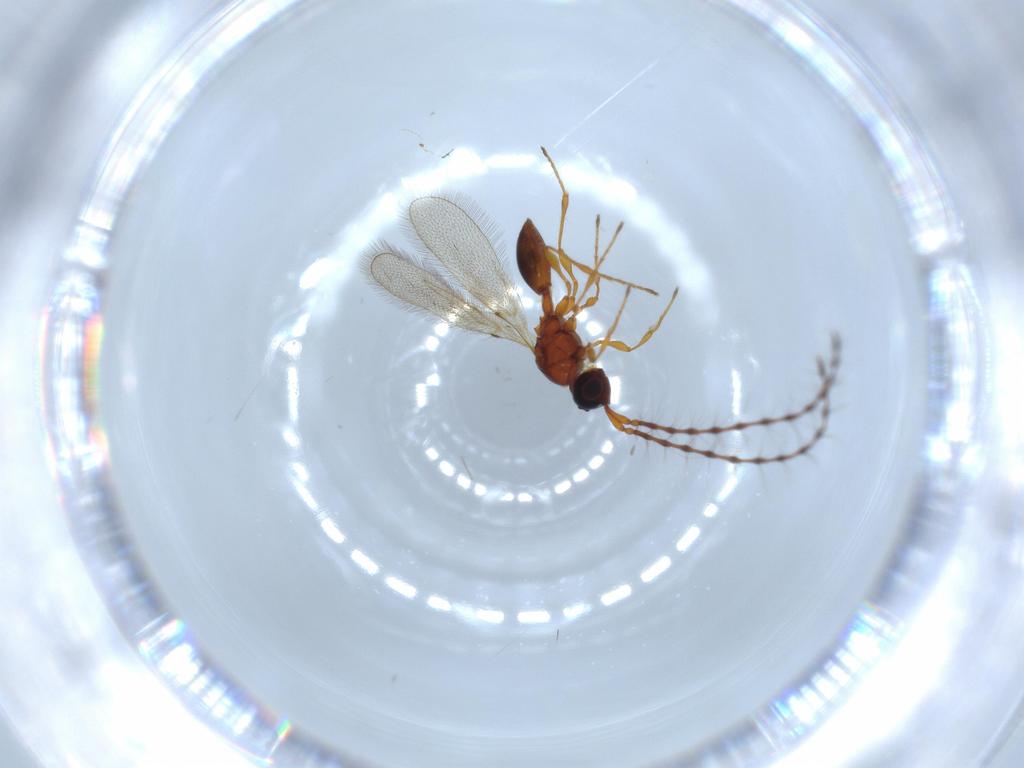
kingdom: Animalia
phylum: Arthropoda
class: Insecta
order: Hymenoptera
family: Diapriidae
